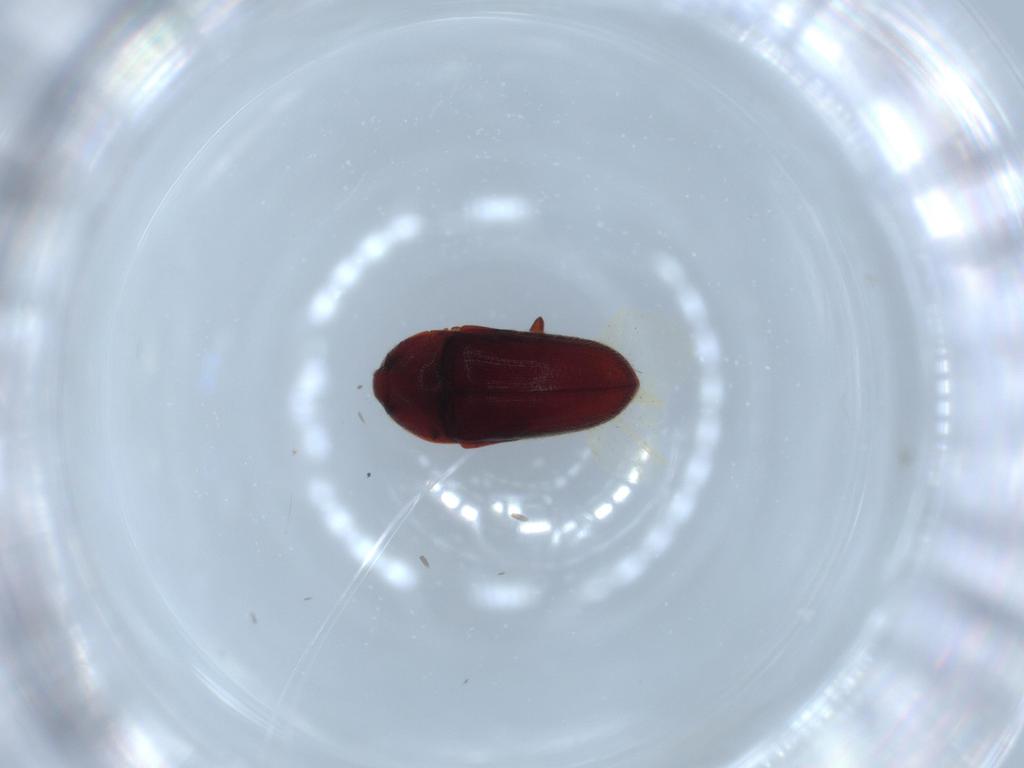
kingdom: Animalia
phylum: Arthropoda
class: Insecta
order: Coleoptera
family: Throscidae
